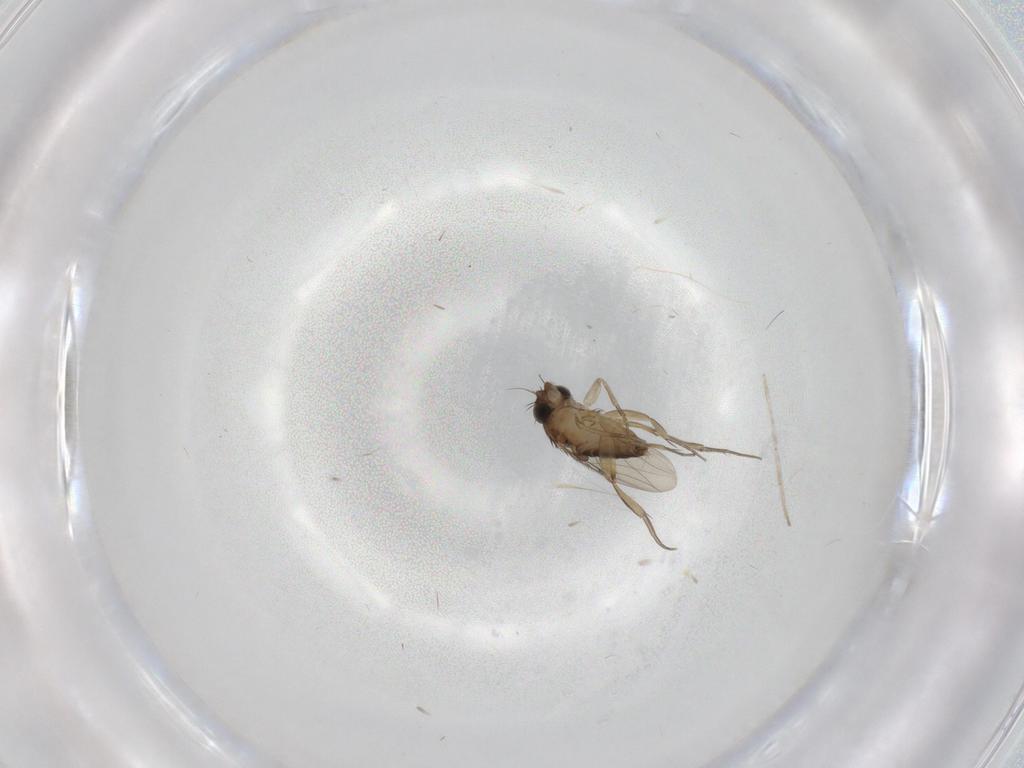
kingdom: Animalia
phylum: Arthropoda
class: Insecta
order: Diptera
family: Phoridae
